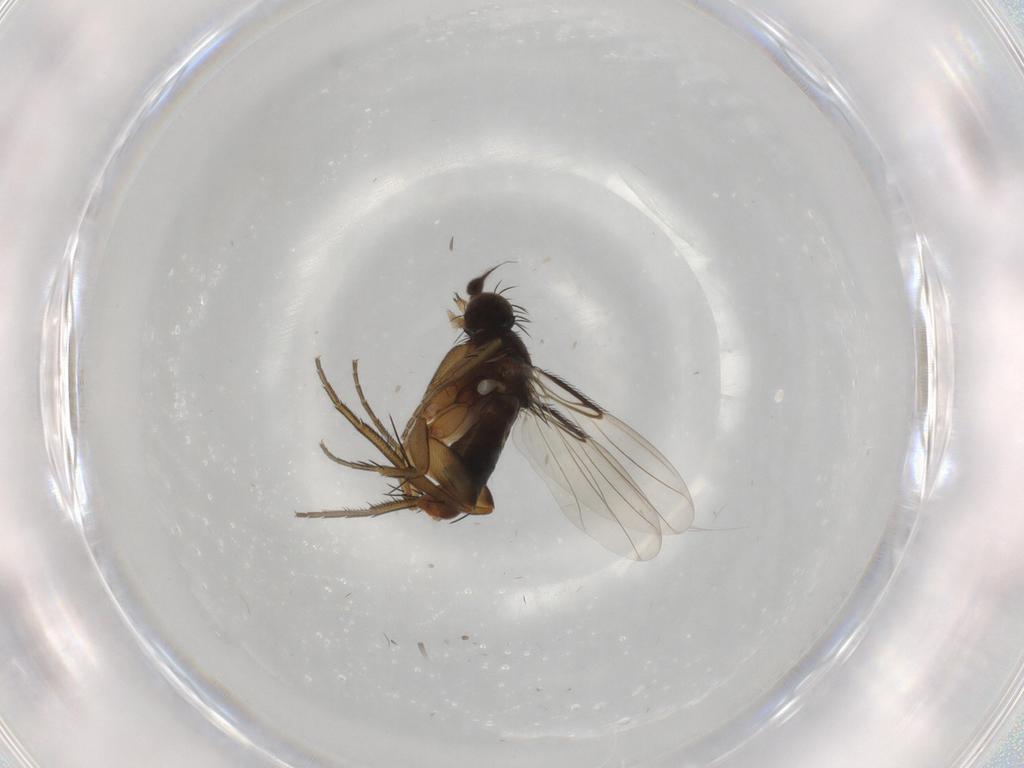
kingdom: Animalia
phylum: Arthropoda
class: Insecta
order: Diptera
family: Phoridae
